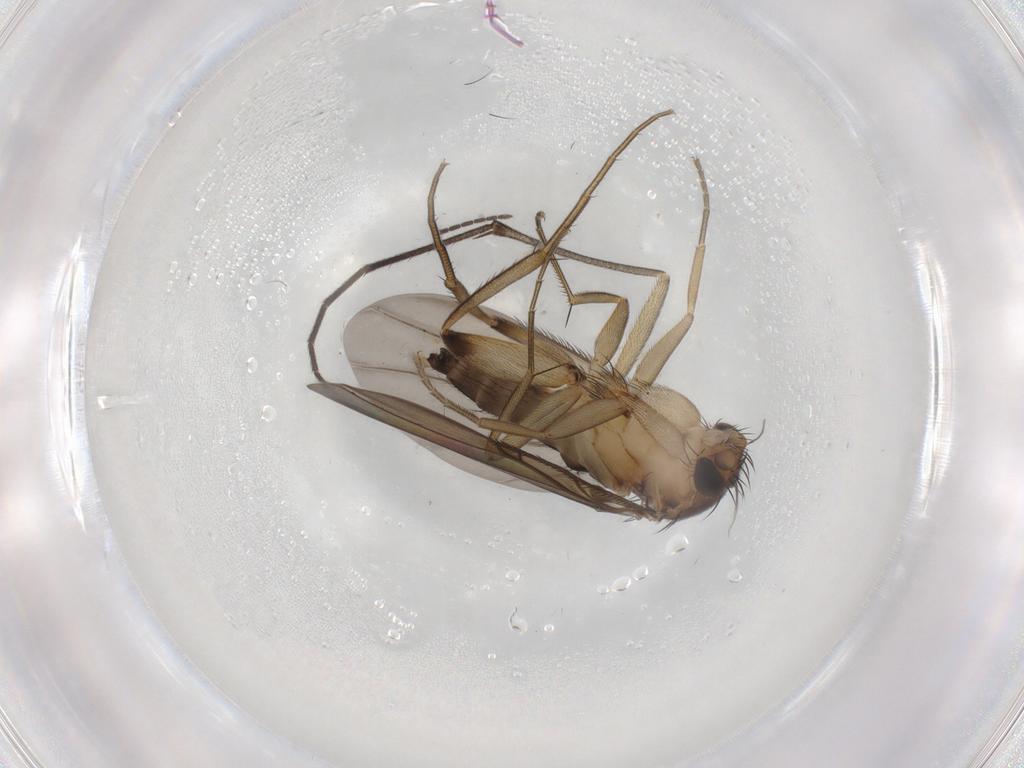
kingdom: Animalia
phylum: Arthropoda
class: Insecta
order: Diptera
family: Phoridae
